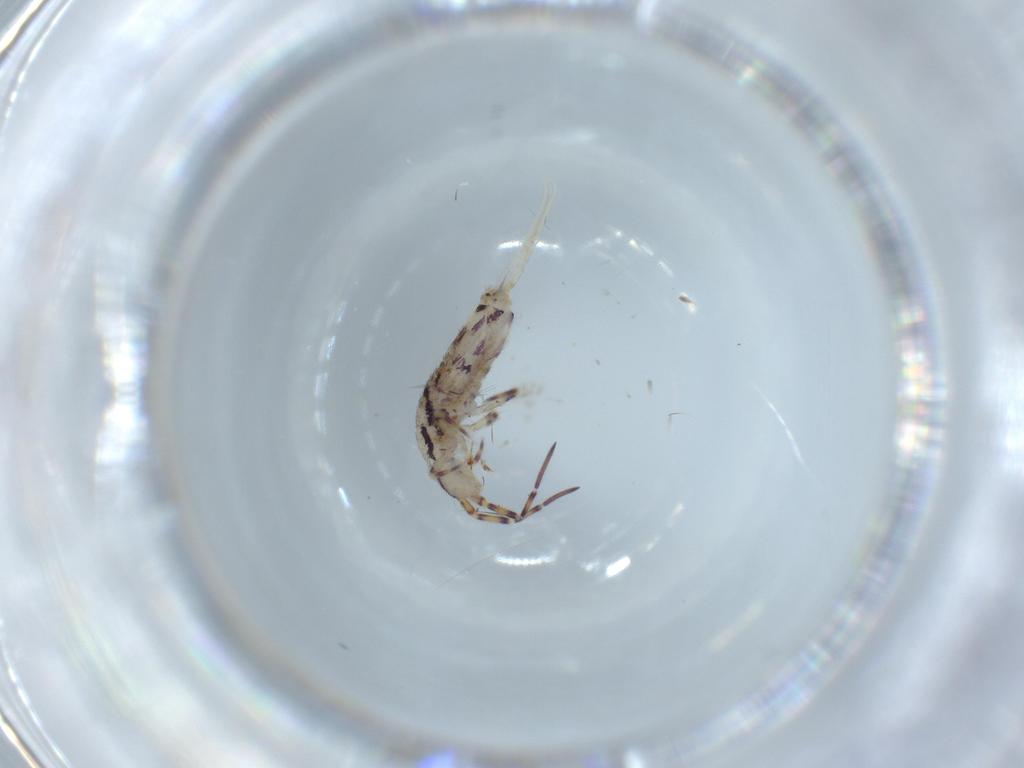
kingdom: Animalia
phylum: Arthropoda
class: Collembola
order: Entomobryomorpha
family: Entomobryidae
